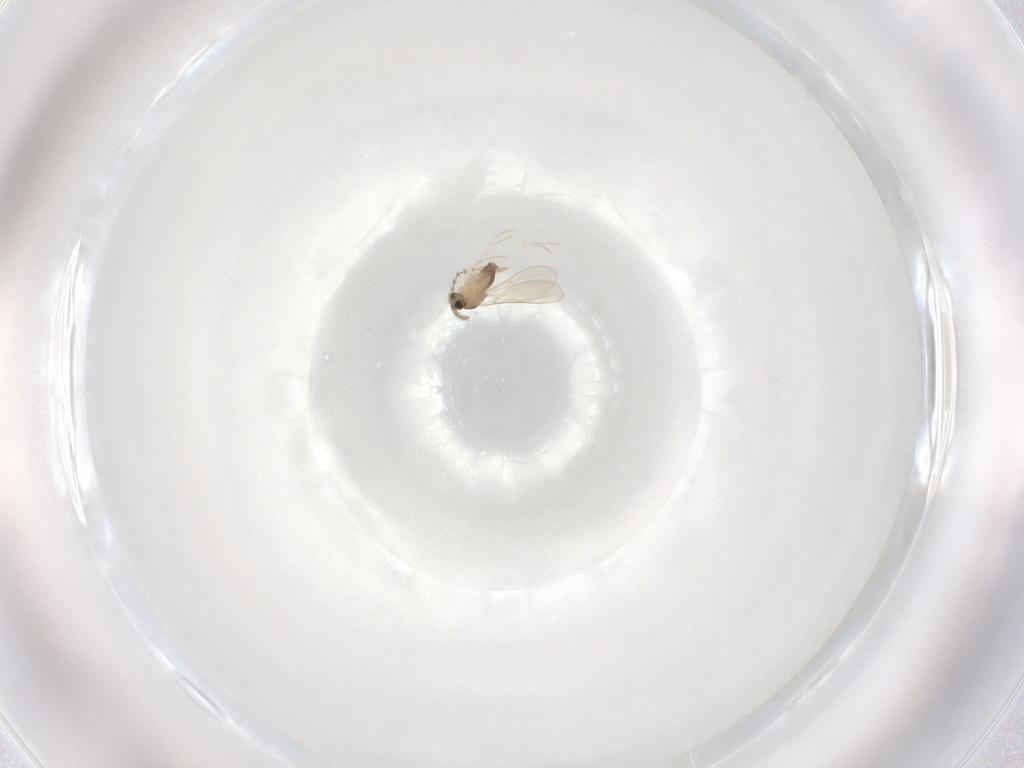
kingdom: Animalia
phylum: Arthropoda
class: Insecta
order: Diptera
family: Cecidomyiidae
